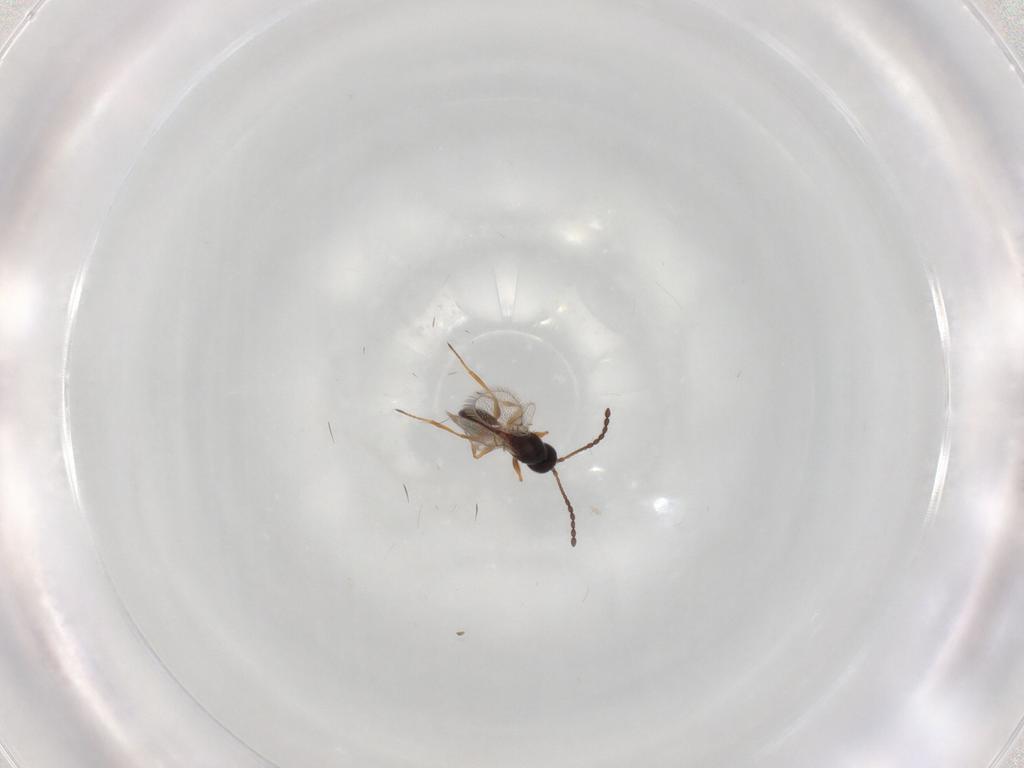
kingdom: Animalia
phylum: Arthropoda
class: Insecta
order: Hymenoptera
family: Figitidae
